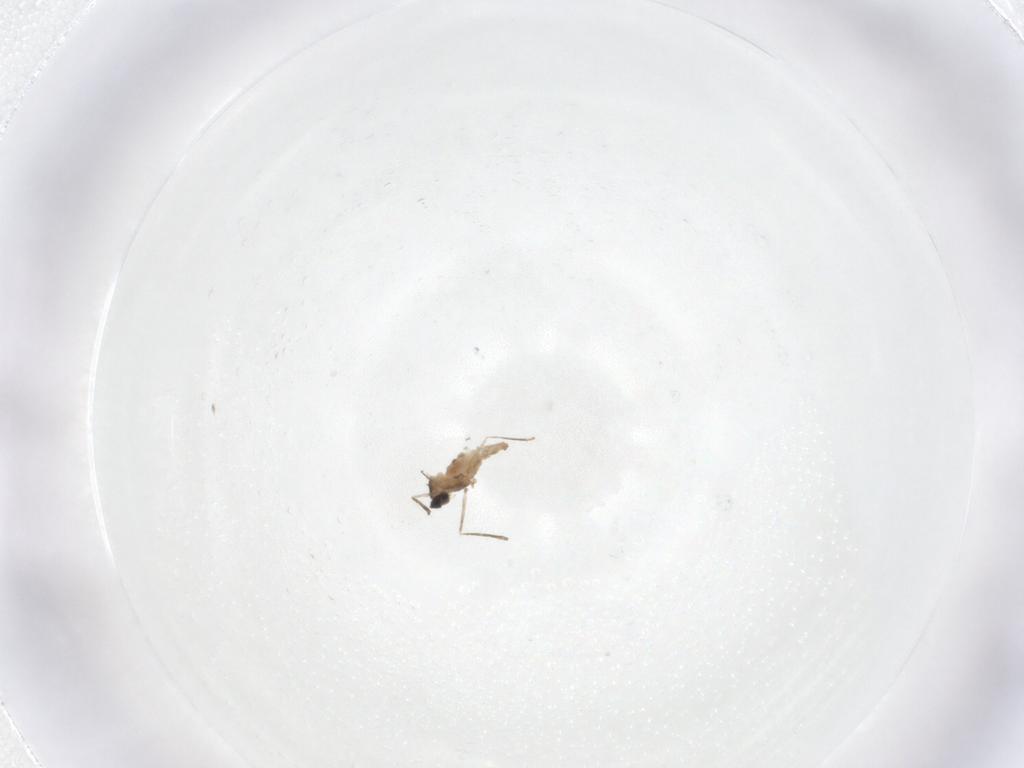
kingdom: Animalia
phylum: Arthropoda
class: Insecta
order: Diptera
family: Cecidomyiidae
